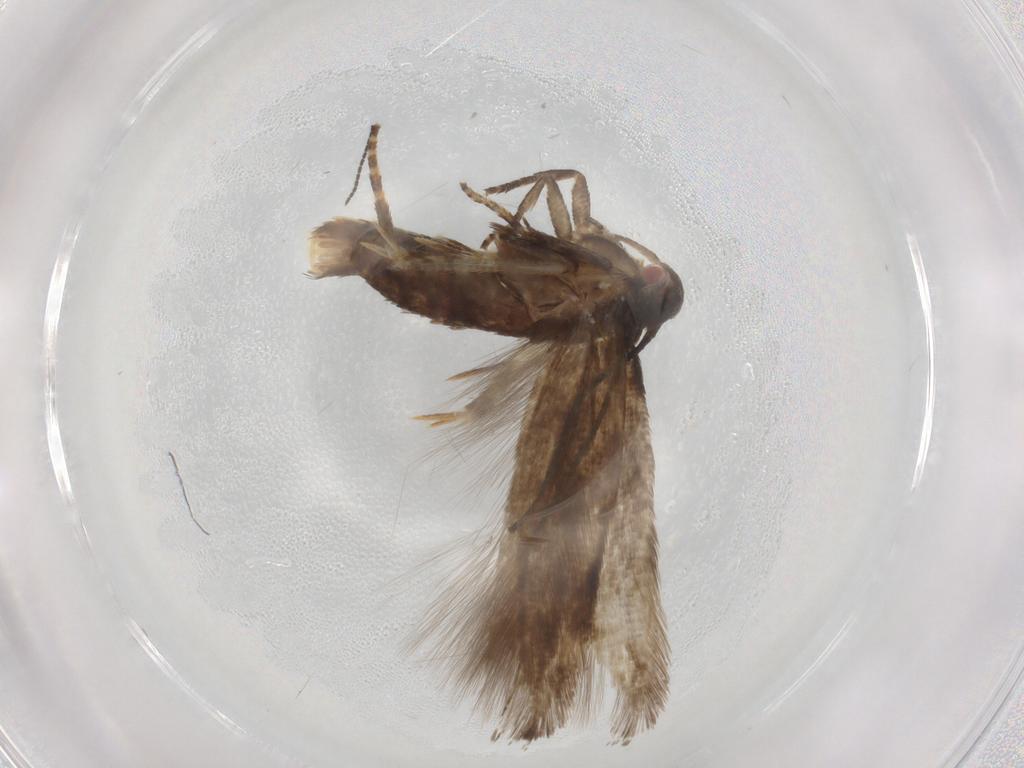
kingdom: Animalia
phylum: Arthropoda
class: Insecta
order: Lepidoptera
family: Momphidae
